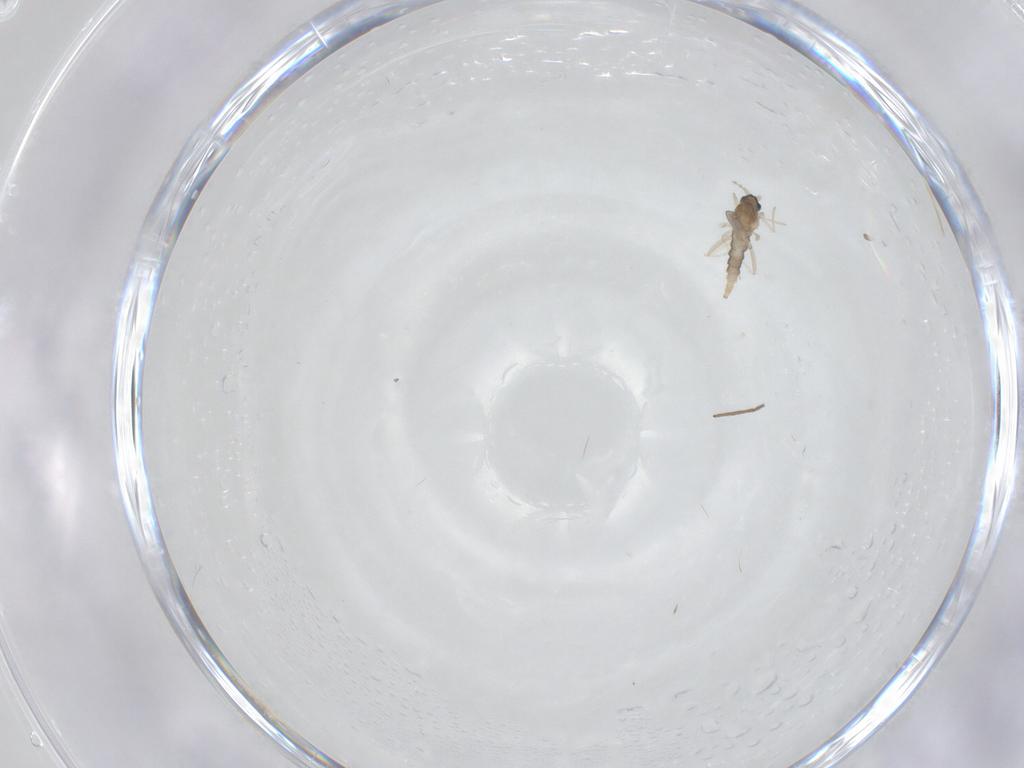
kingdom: Animalia
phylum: Arthropoda
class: Insecta
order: Diptera
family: Cecidomyiidae
